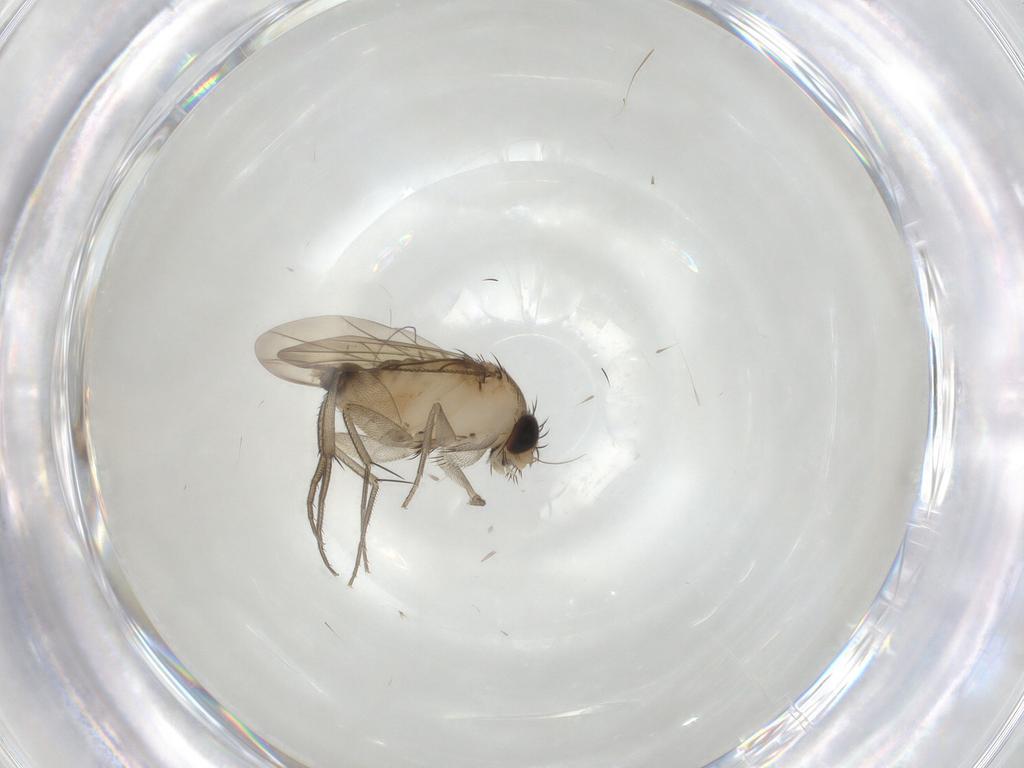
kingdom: Animalia
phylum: Arthropoda
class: Insecta
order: Diptera
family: Phoridae
